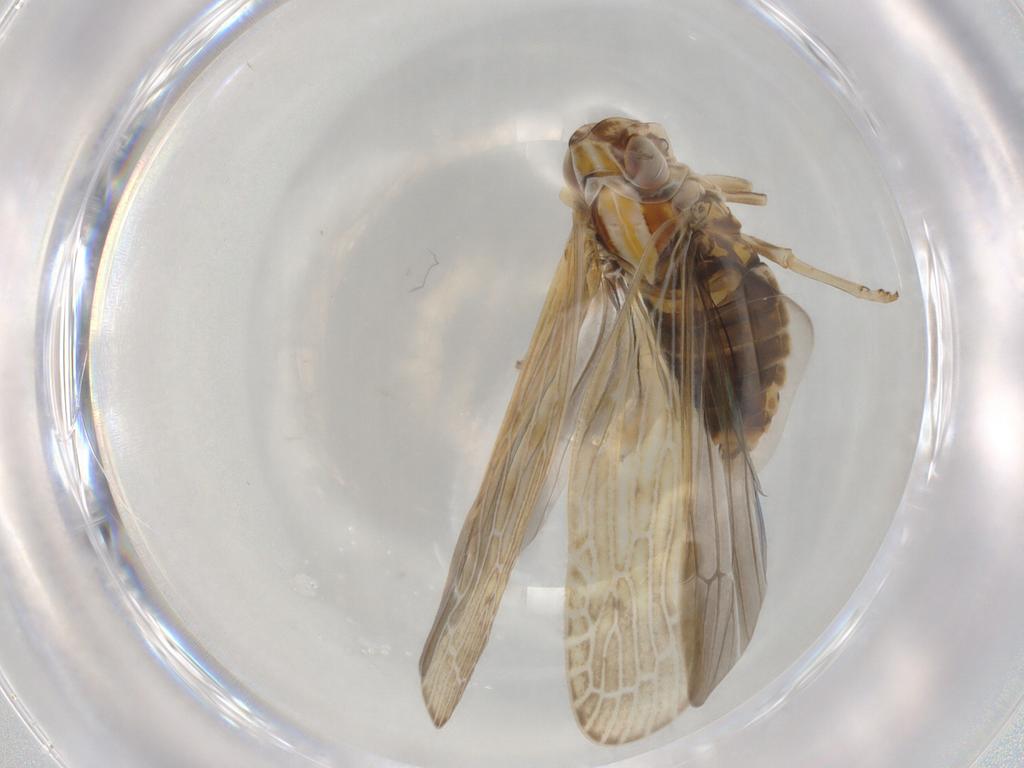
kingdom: Animalia
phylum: Arthropoda
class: Insecta
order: Hemiptera
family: Achilidae
